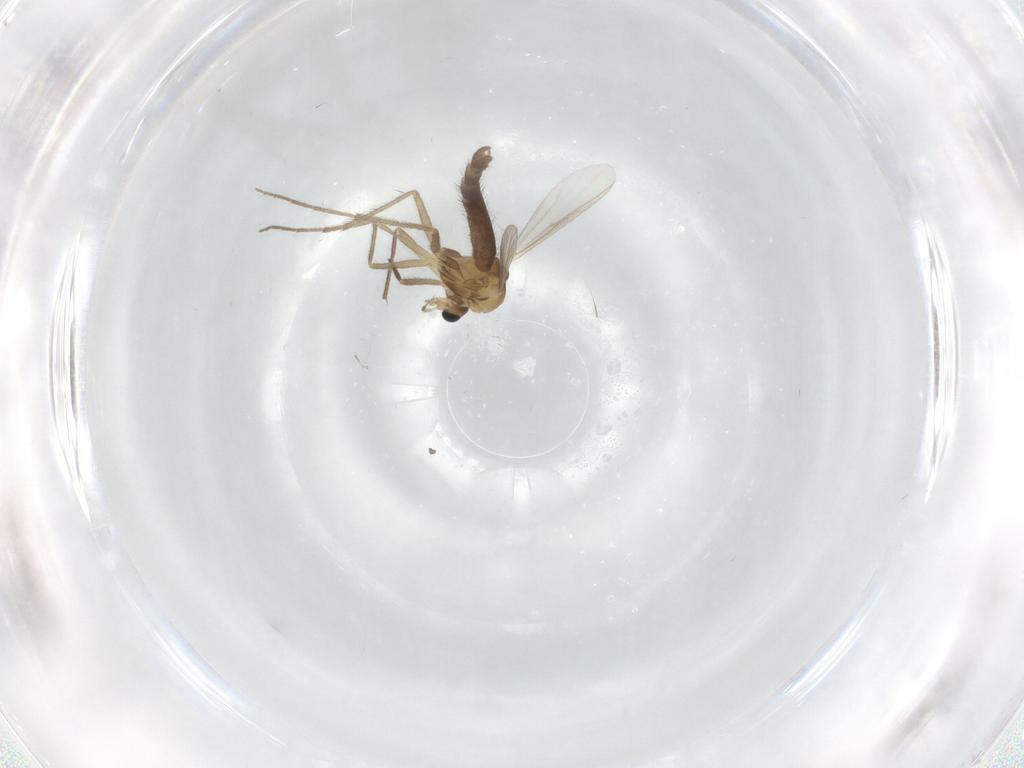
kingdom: Animalia
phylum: Arthropoda
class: Insecta
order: Diptera
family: Chironomidae
